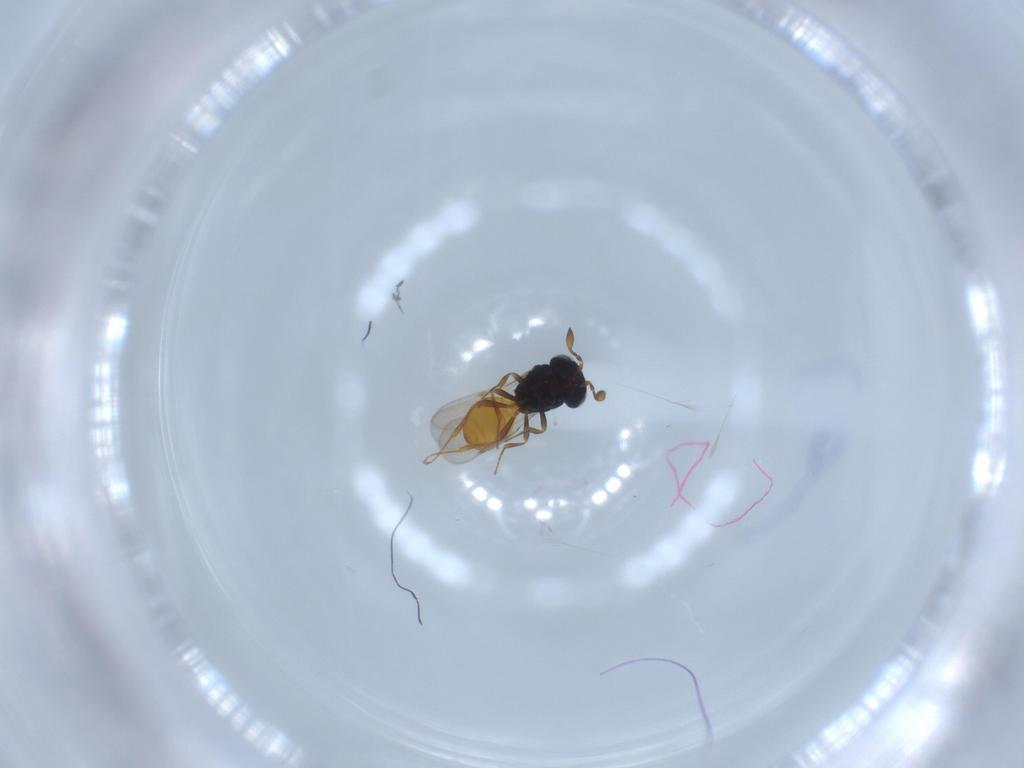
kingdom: Animalia
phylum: Arthropoda
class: Insecta
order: Hymenoptera
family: Scelionidae
